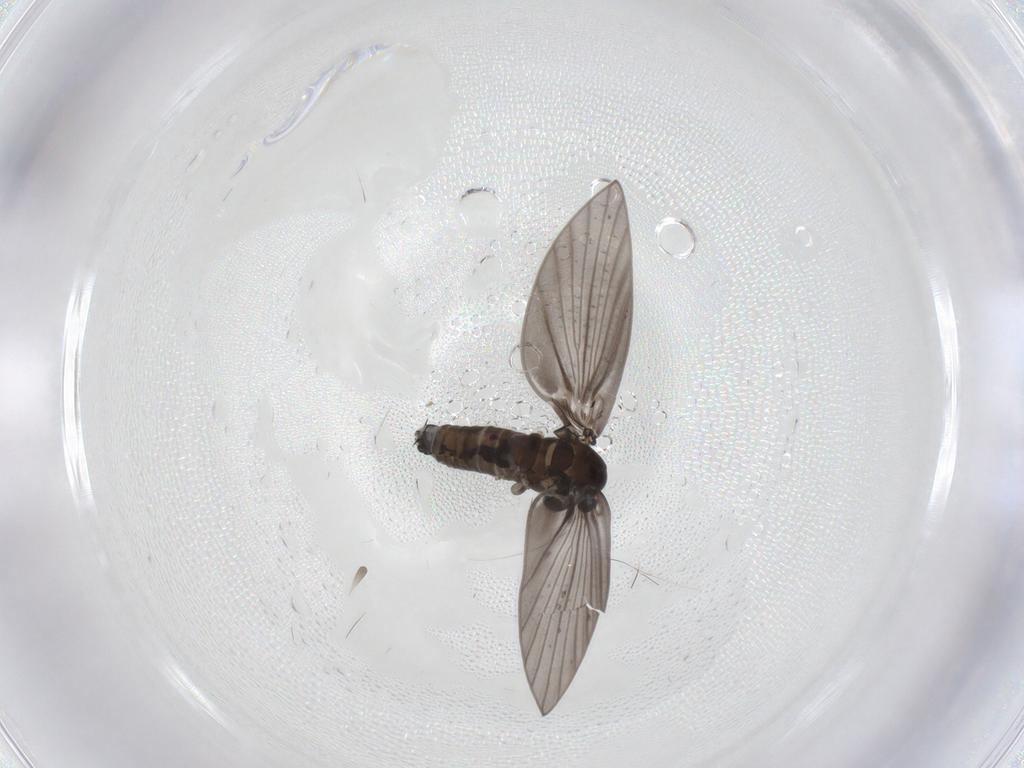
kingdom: Animalia
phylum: Arthropoda
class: Insecta
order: Diptera
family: Psychodidae
